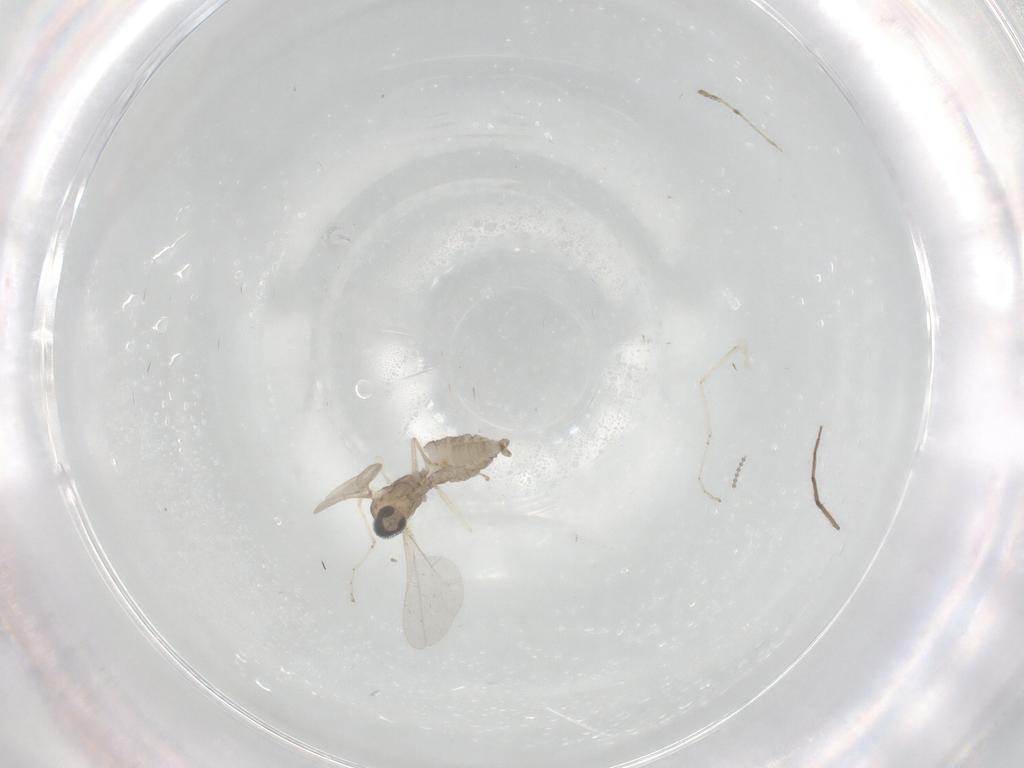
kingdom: Animalia
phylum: Arthropoda
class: Insecta
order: Diptera
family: Cecidomyiidae
